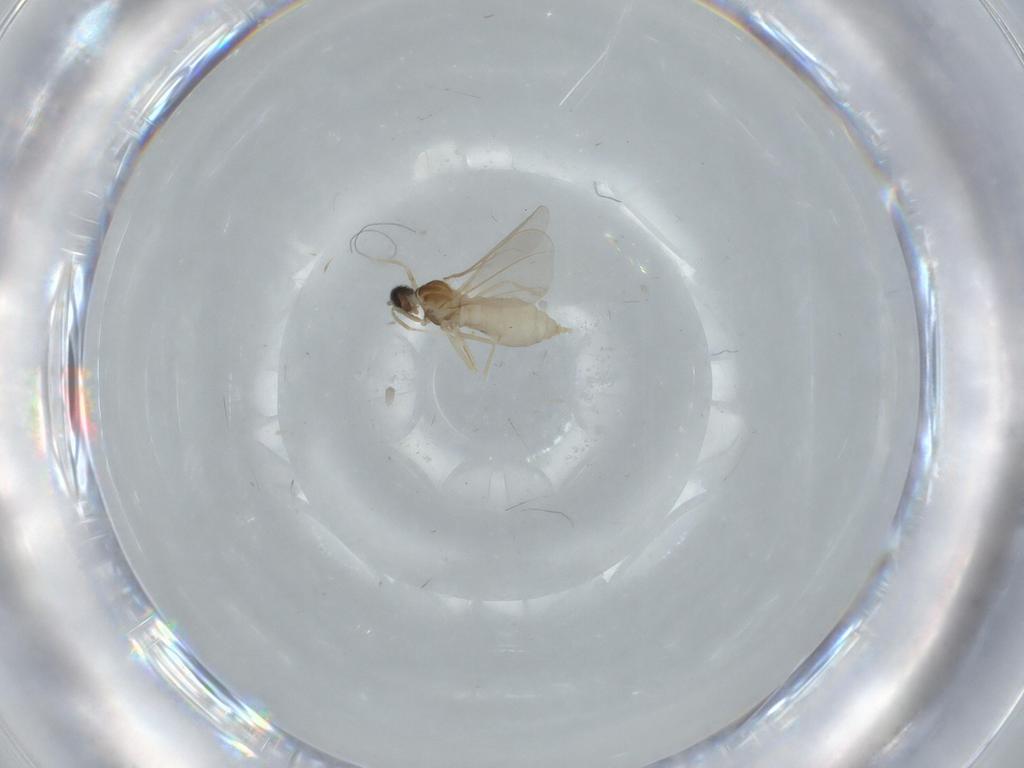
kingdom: Animalia
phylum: Arthropoda
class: Insecta
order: Diptera
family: Cecidomyiidae
